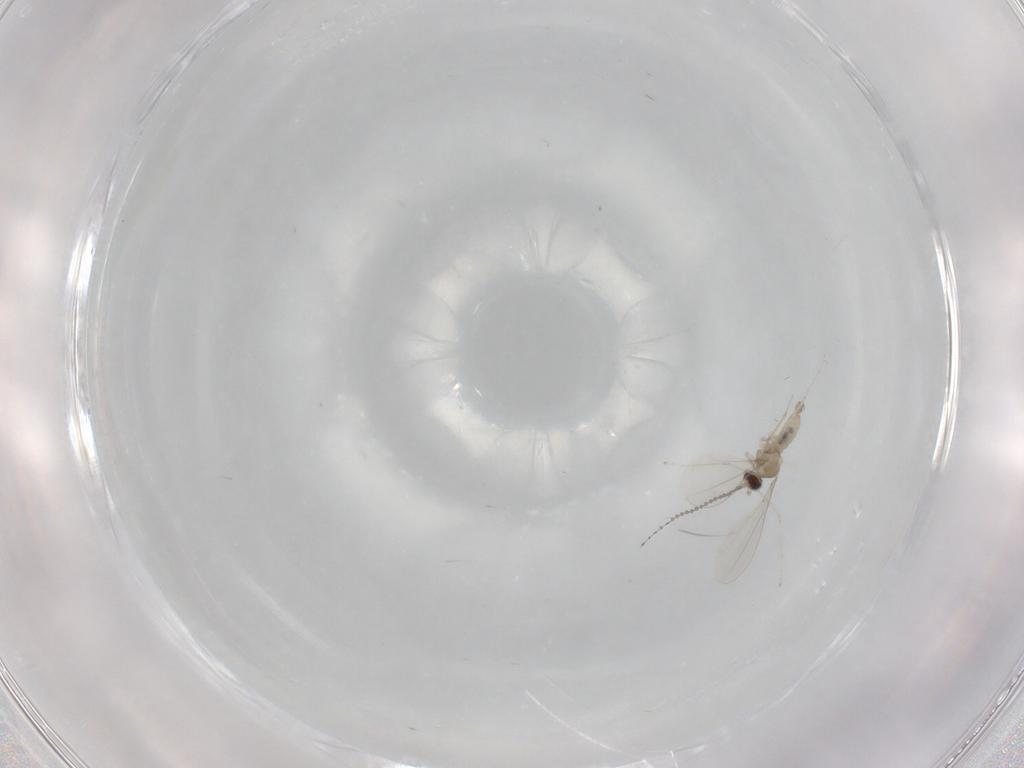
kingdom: Animalia
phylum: Arthropoda
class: Insecta
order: Diptera
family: Cecidomyiidae
